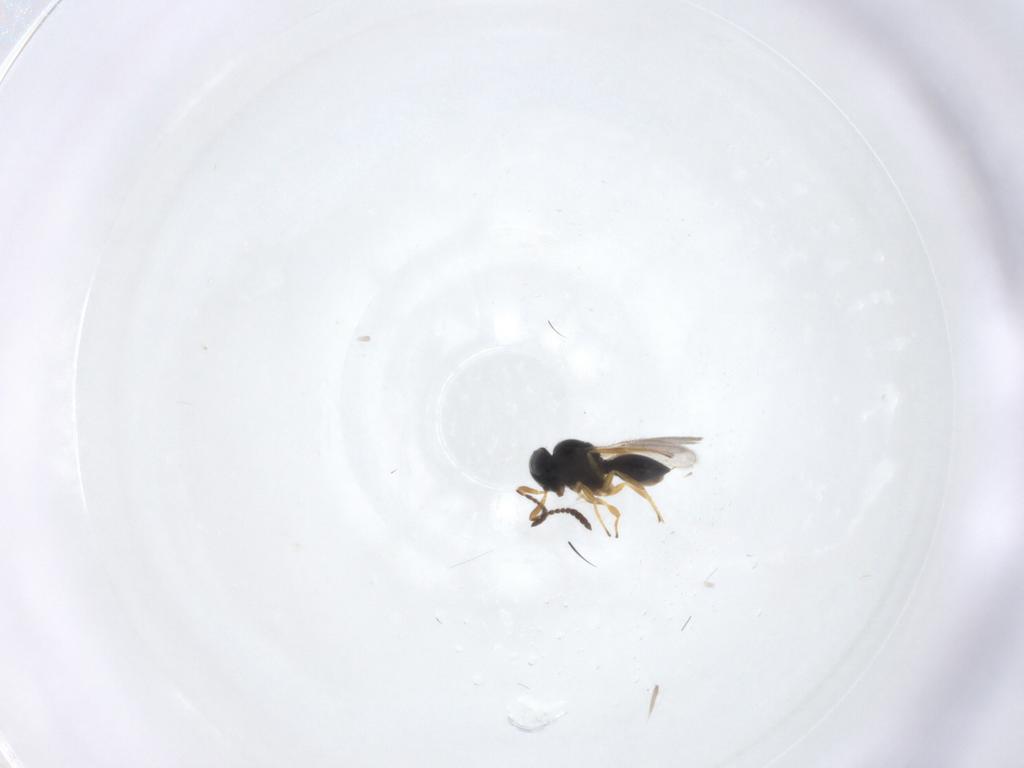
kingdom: Animalia
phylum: Arthropoda
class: Insecta
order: Hymenoptera
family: Scelionidae
